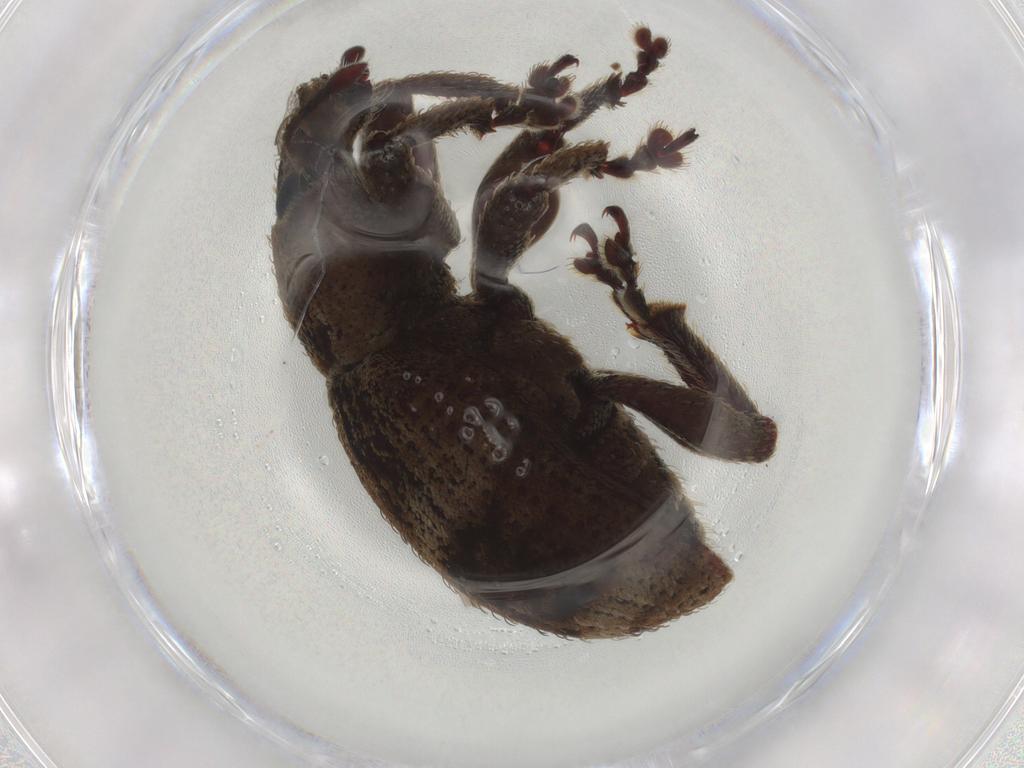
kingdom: Animalia
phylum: Arthropoda
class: Insecta
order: Coleoptera
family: Curculionidae
